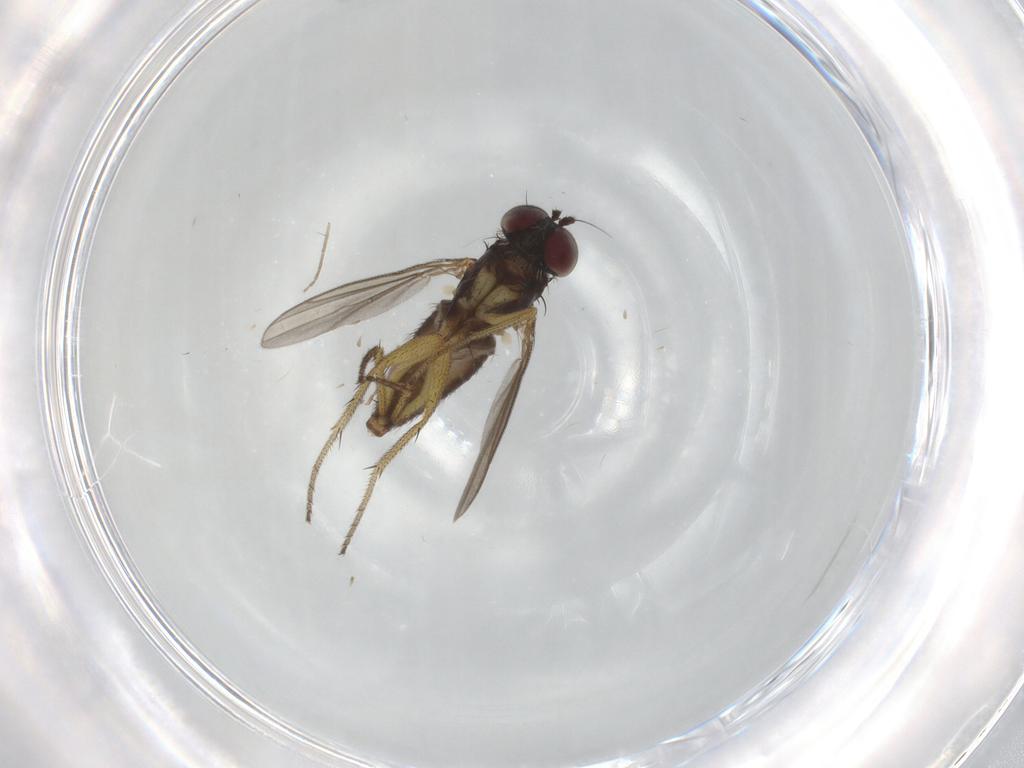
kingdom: Animalia
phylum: Arthropoda
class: Insecta
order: Diptera
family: Dolichopodidae
